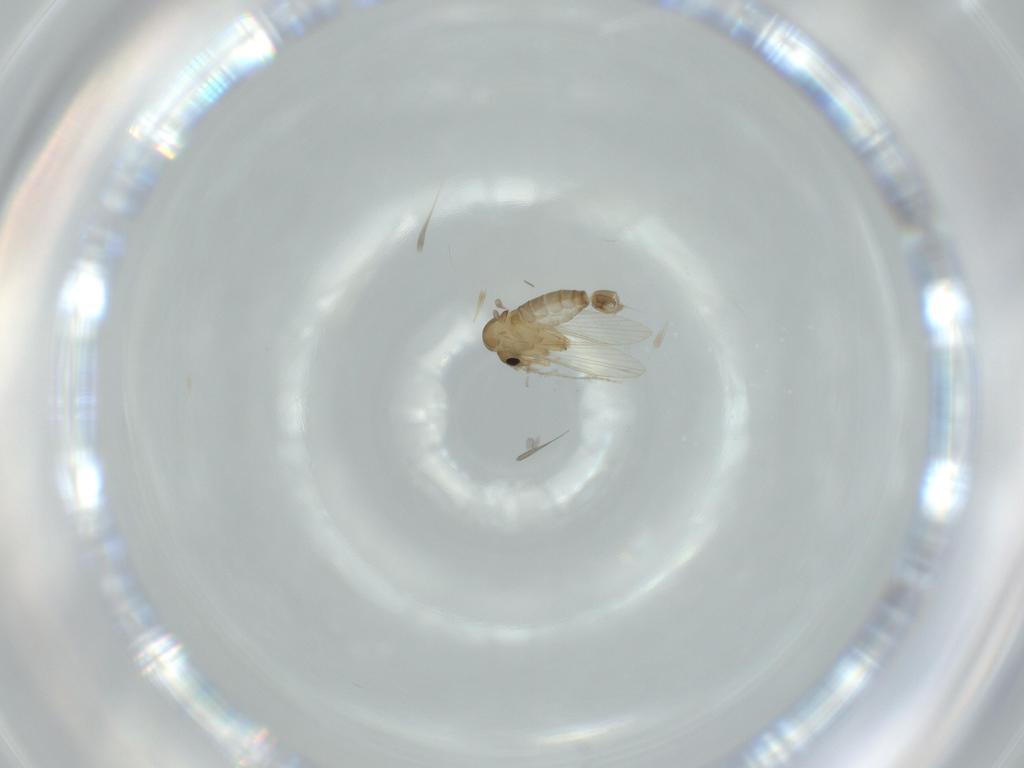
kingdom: Animalia
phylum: Arthropoda
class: Insecta
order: Diptera
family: Psychodidae
